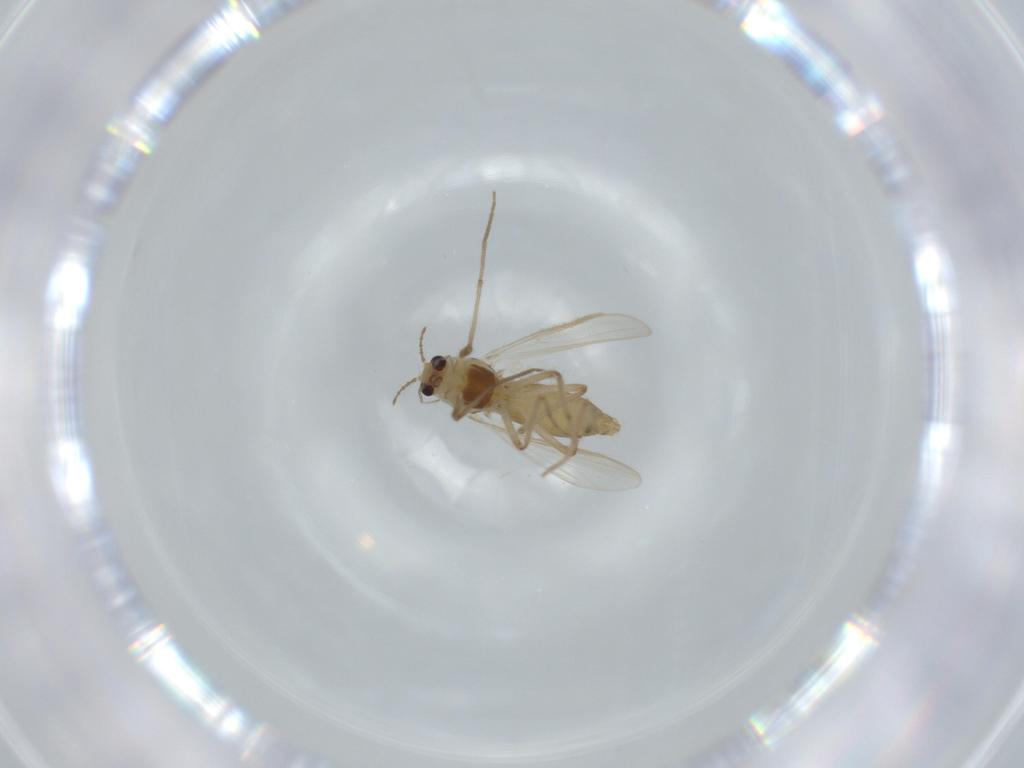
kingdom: Animalia
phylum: Arthropoda
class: Insecta
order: Diptera
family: Chironomidae
